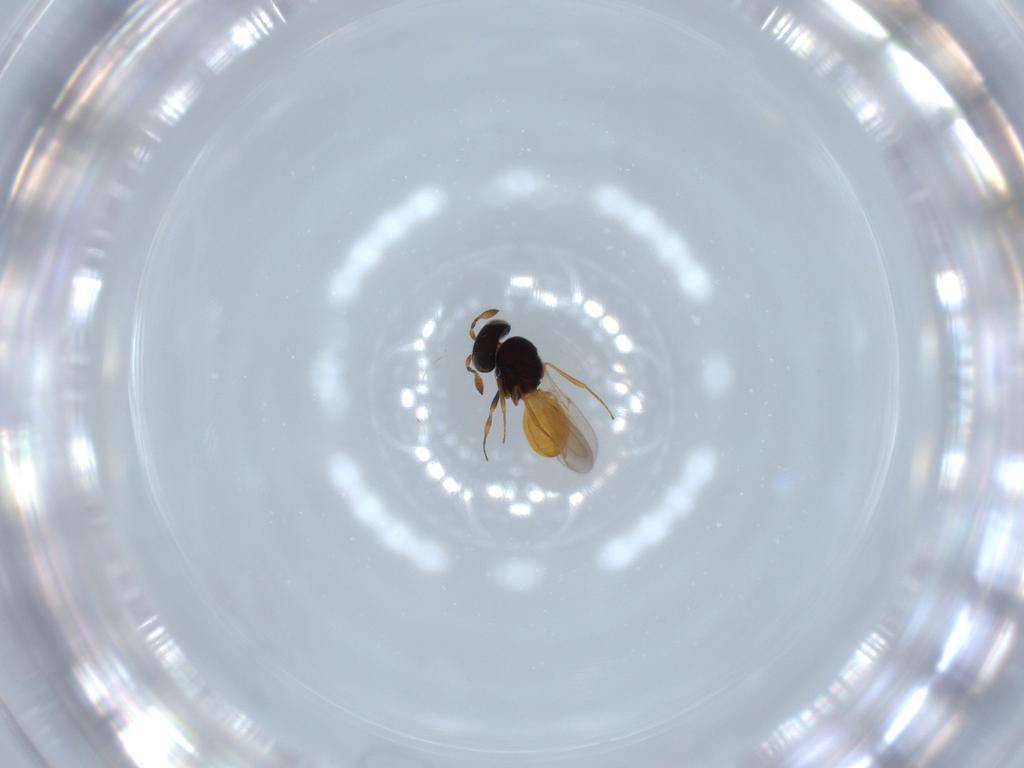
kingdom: Animalia
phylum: Arthropoda
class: Insecta
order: Hymenoptera
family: Scelionidae
